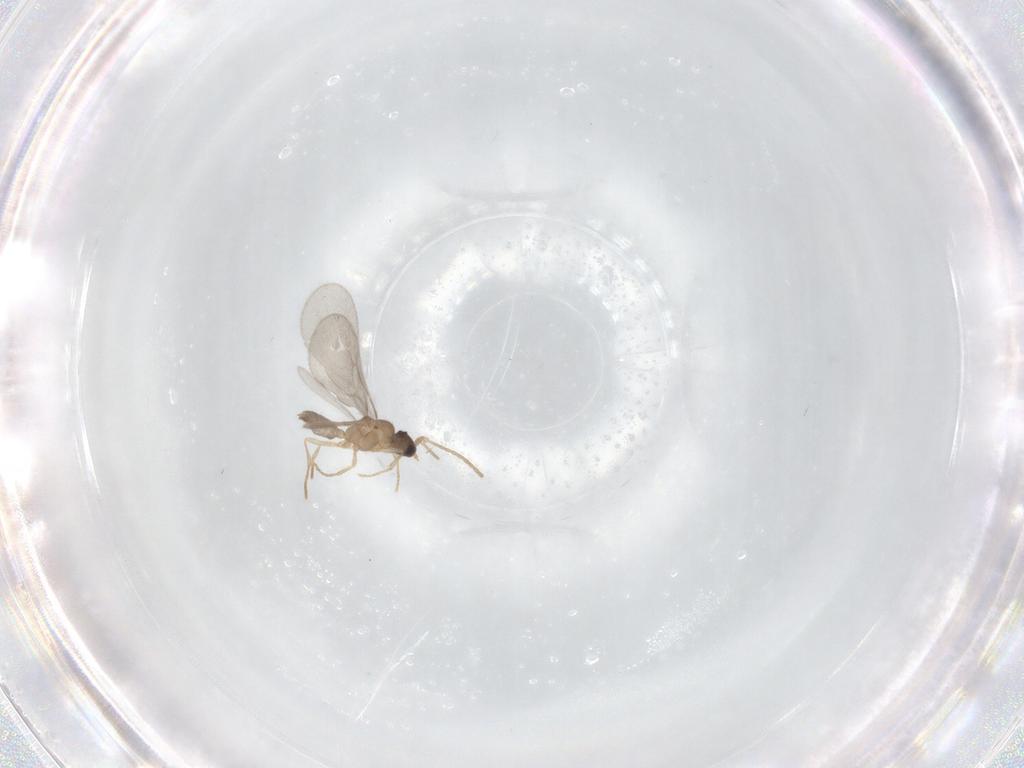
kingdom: Animalia
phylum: Arthropoda
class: Insecta
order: Hymenoptera
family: Formicidae
